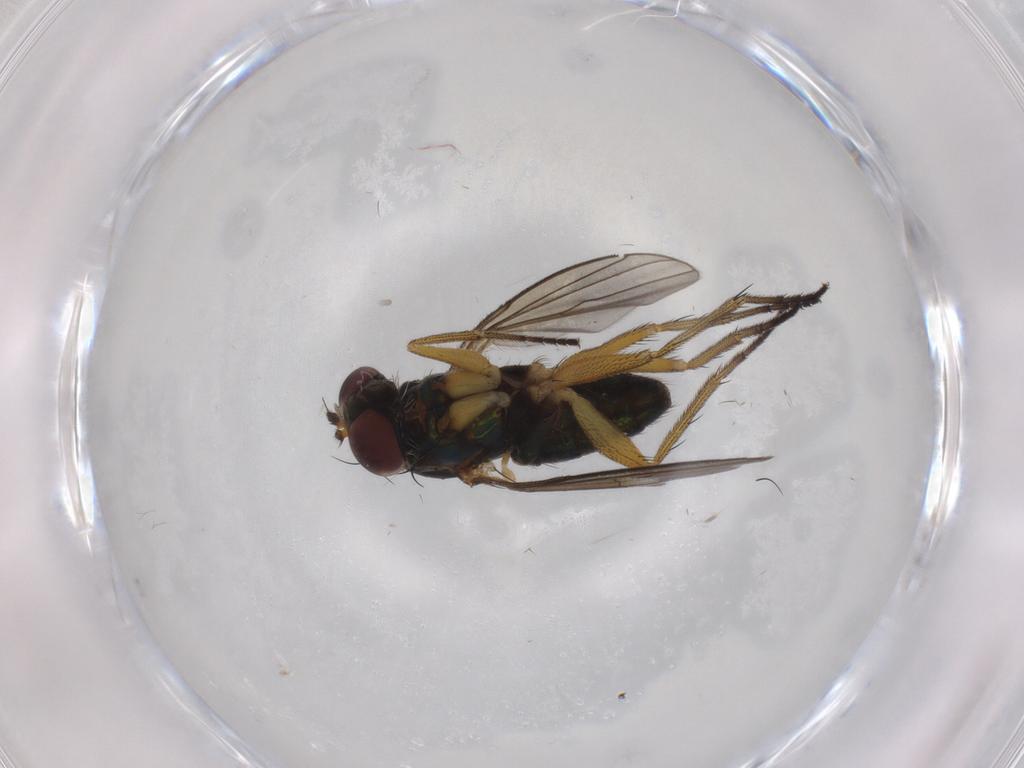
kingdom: Animalia
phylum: Arthropoda
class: Insecta
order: Diptera
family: Dolichopodidae
